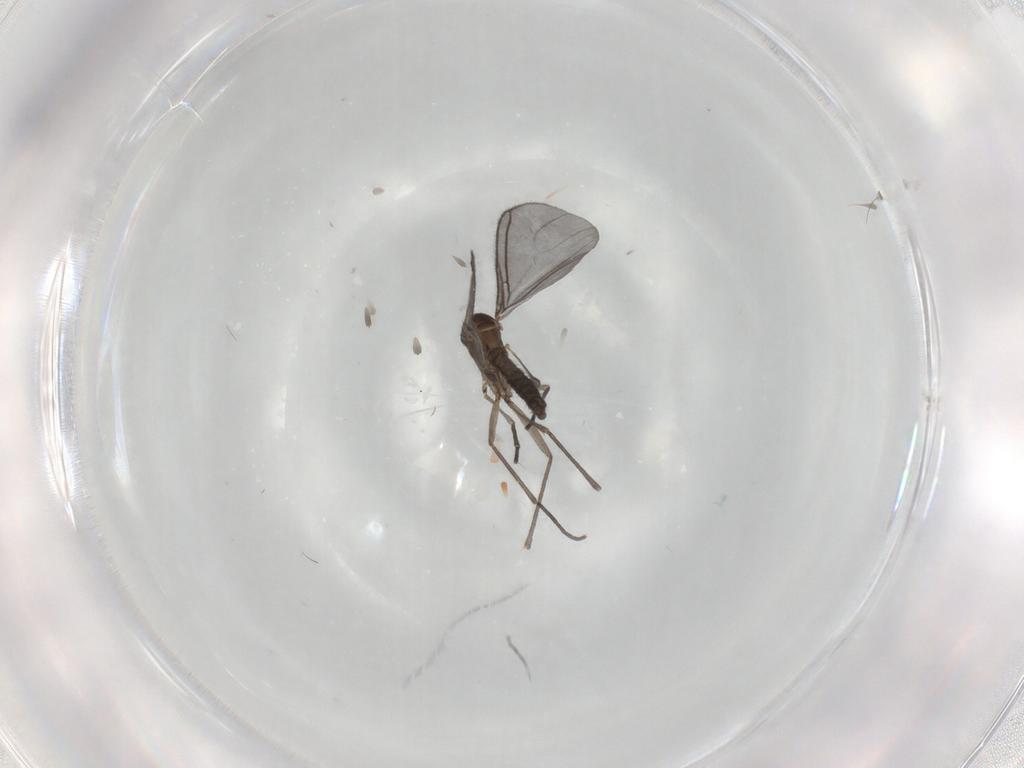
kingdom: Animalia
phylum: Arthropoda
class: Insecta
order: Diptera
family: Sciaridae
